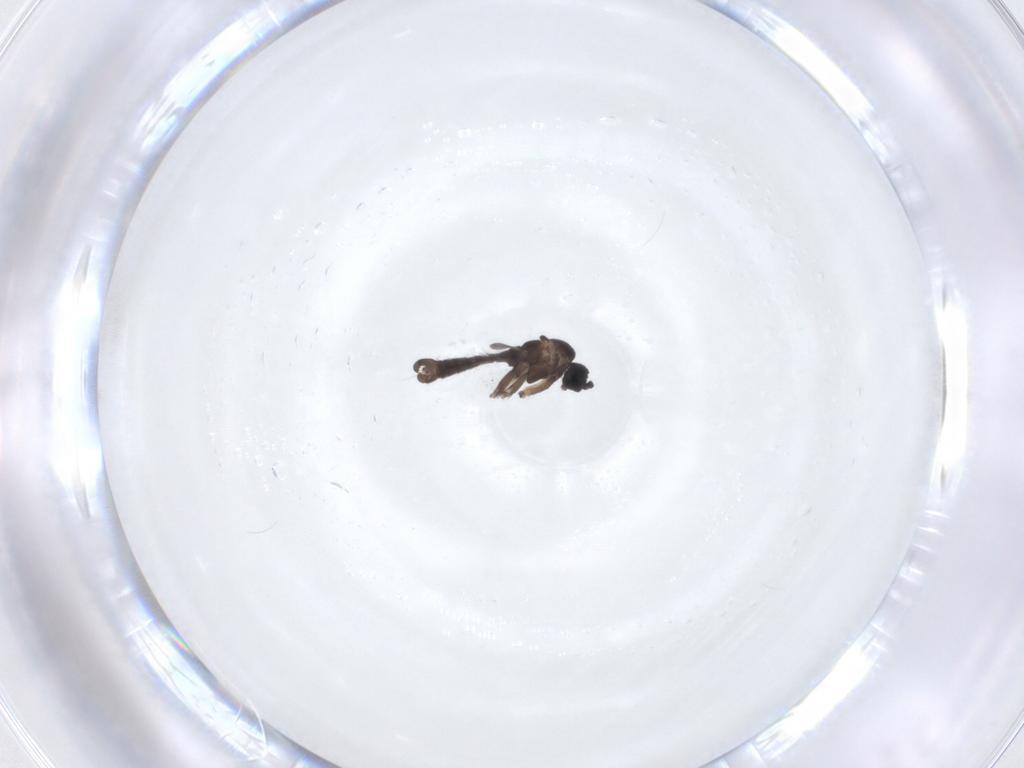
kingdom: Animalia
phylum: Arthropoda
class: Insecta
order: Diptera
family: Sciaridae
